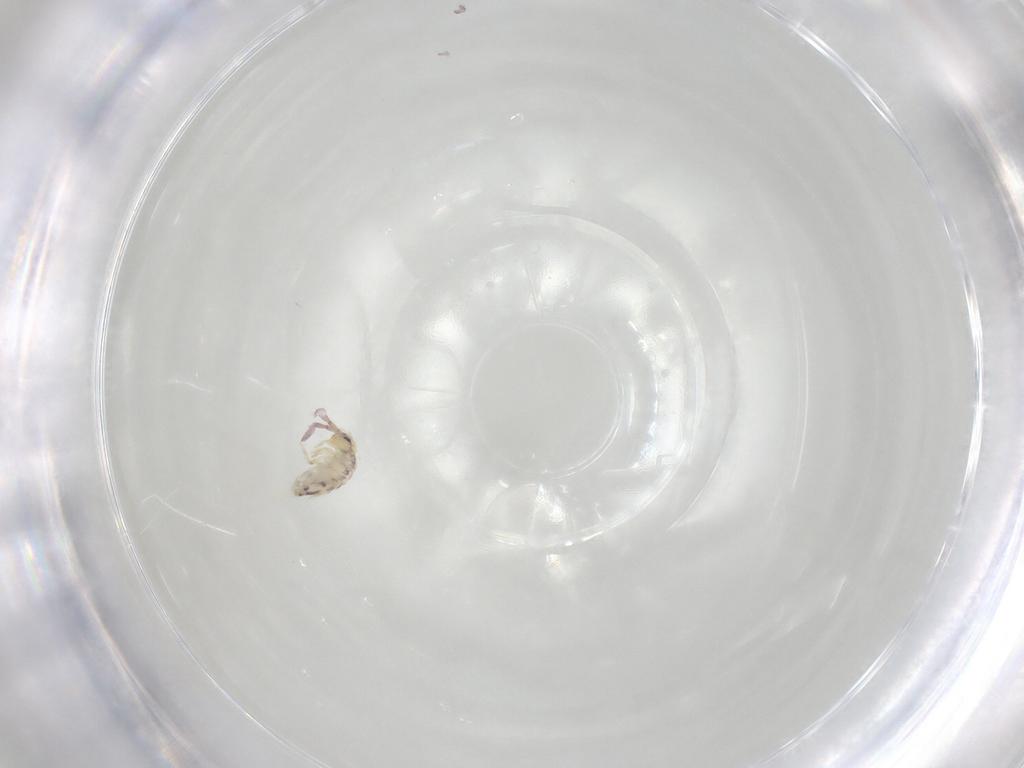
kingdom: Animalia
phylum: Arthropoda
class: Collembola
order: Entomobryomorpha
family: Entomobryidae
